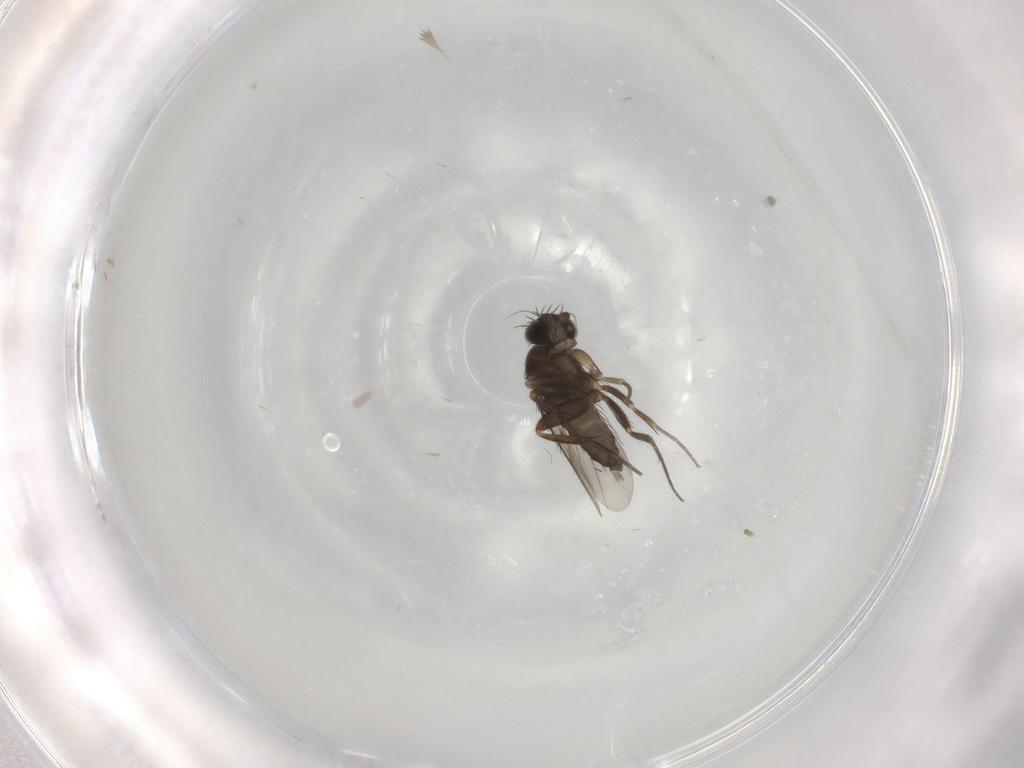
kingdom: Animalia
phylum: Arthropoda
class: Insecta
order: Diptera
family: Phoridae
